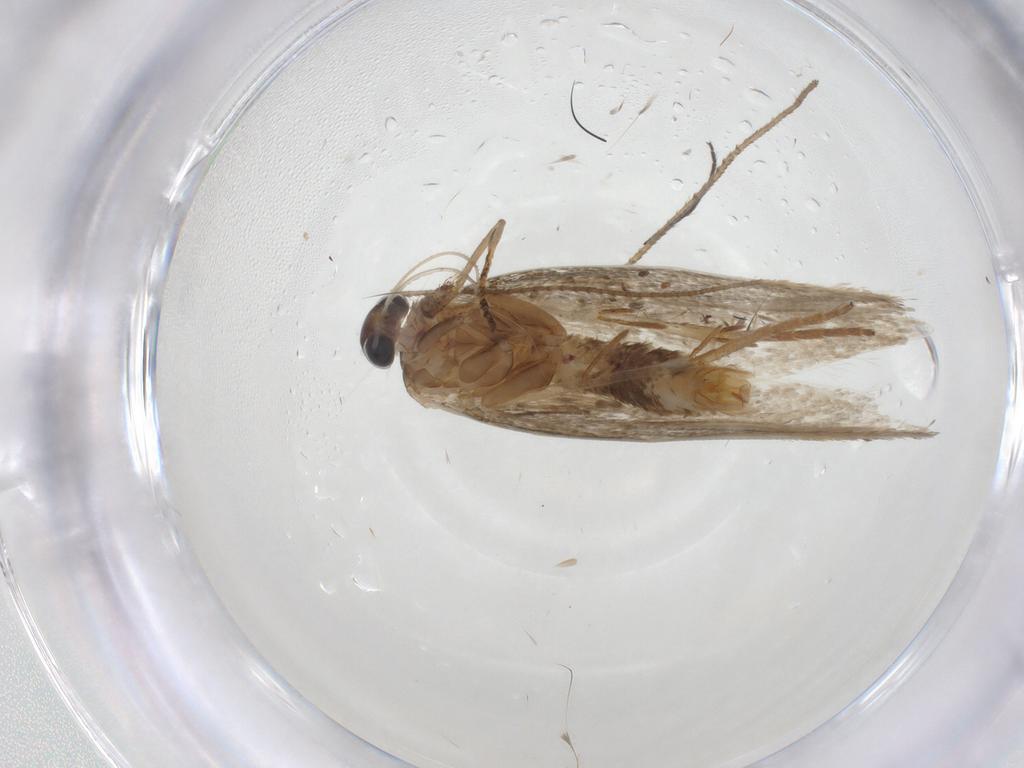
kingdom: Animalia
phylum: Arthropoda
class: Insecta
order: Lepidoptera
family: Erebidae
